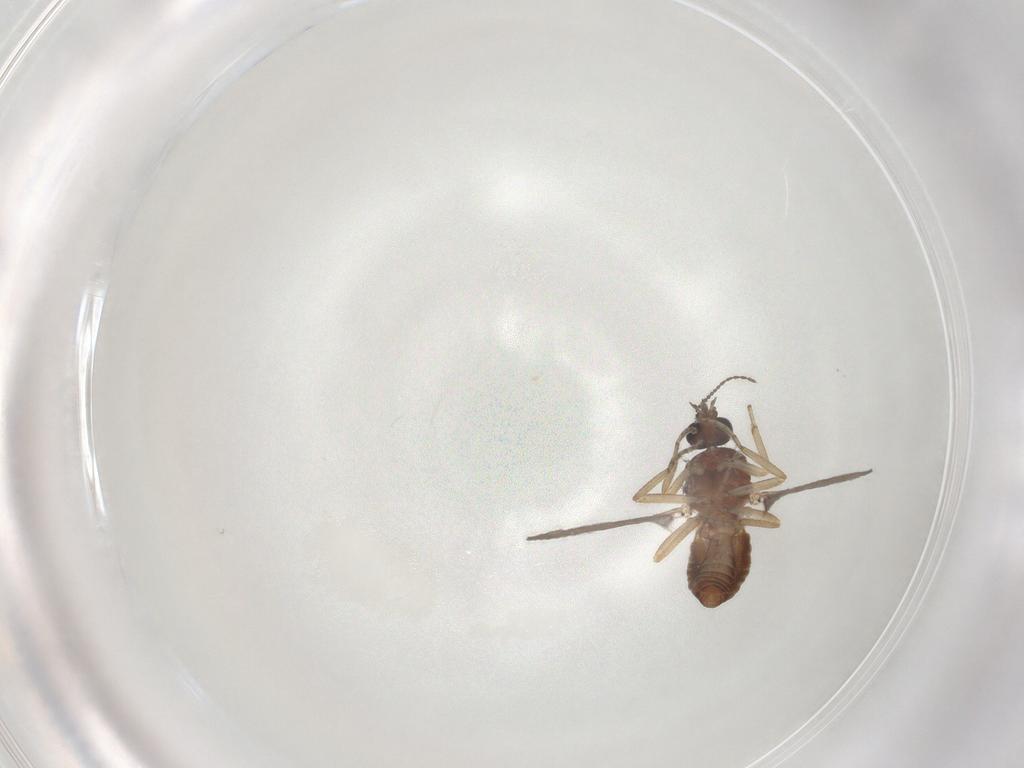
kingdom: Animalia
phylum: Arthropoda
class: Insecta
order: Diptera
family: Ceratopogonidae
